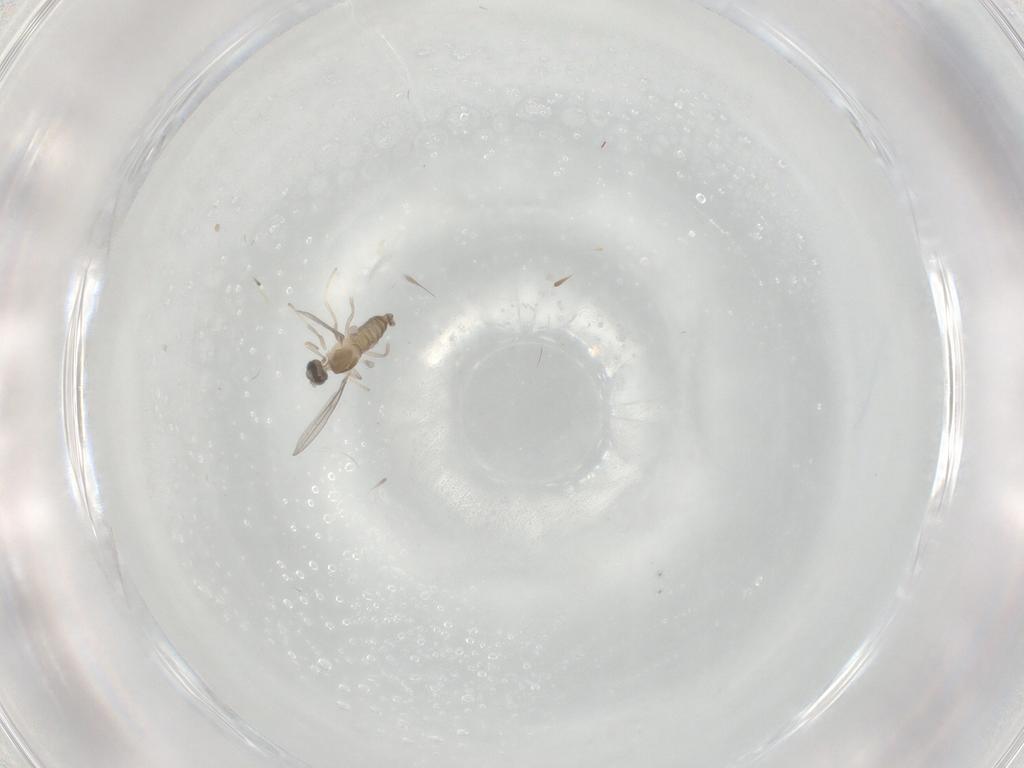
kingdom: Animalia
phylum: Arthropoda
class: Insecta
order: Diptera
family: Cecidomyiidae
